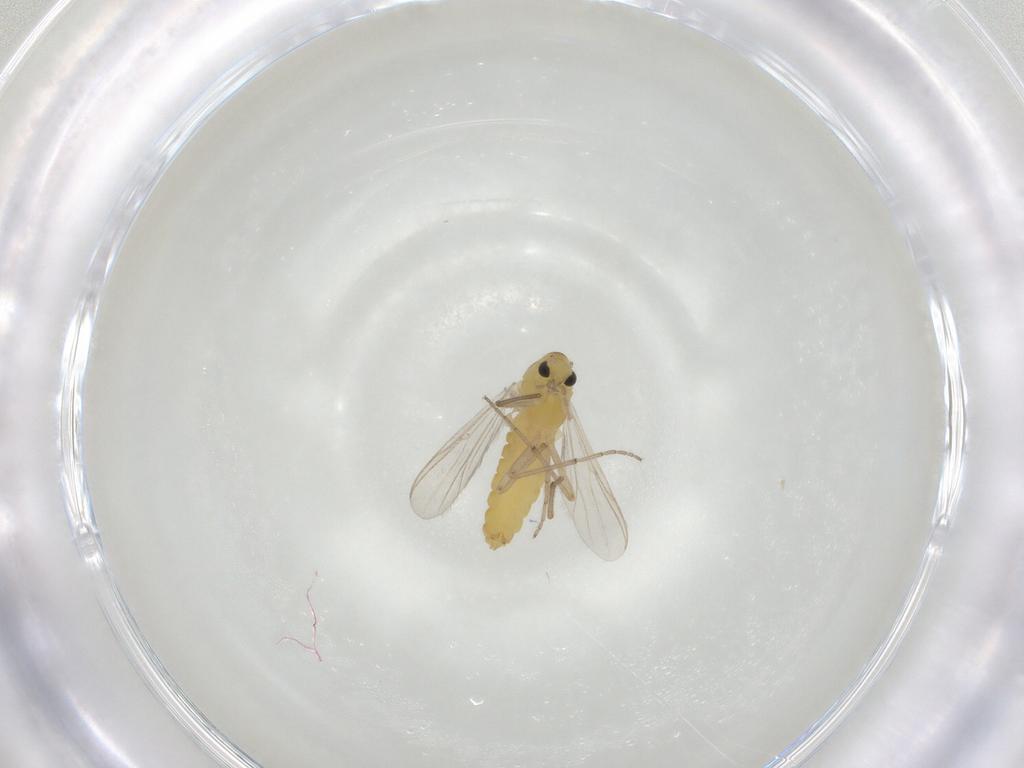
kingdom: Animalia
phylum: Arthropoda
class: Insecta
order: Diptera
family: Chironomidae
